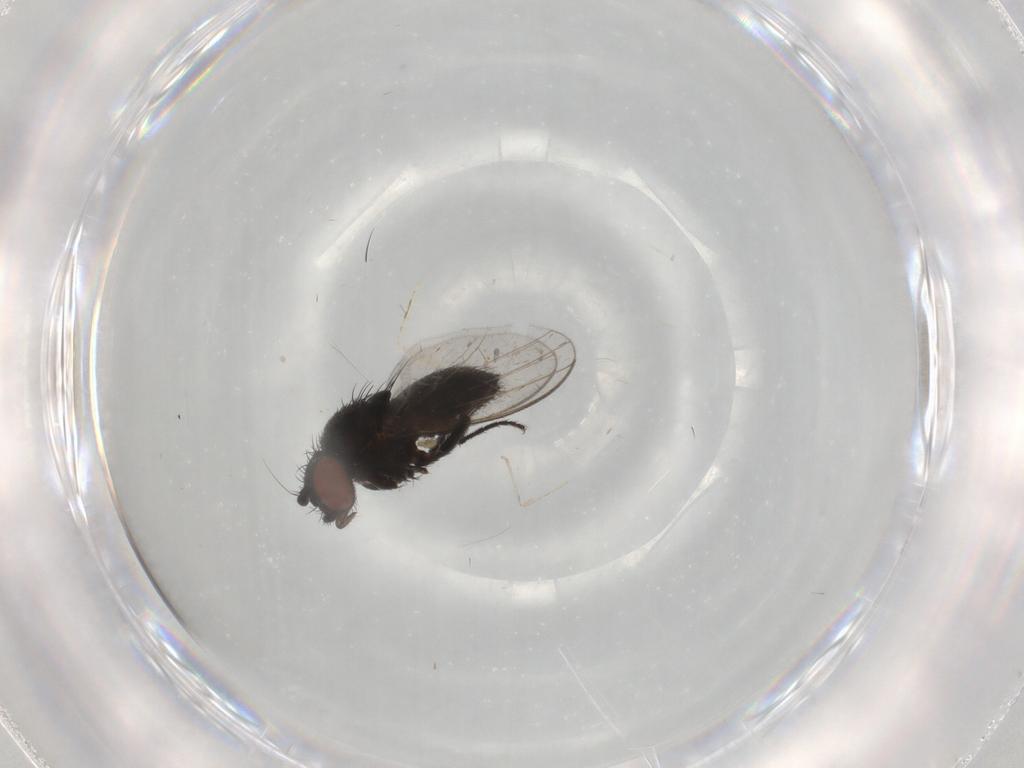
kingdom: Animalia
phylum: Arthropoda
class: Insecta
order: Diptera
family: Milichiidae
